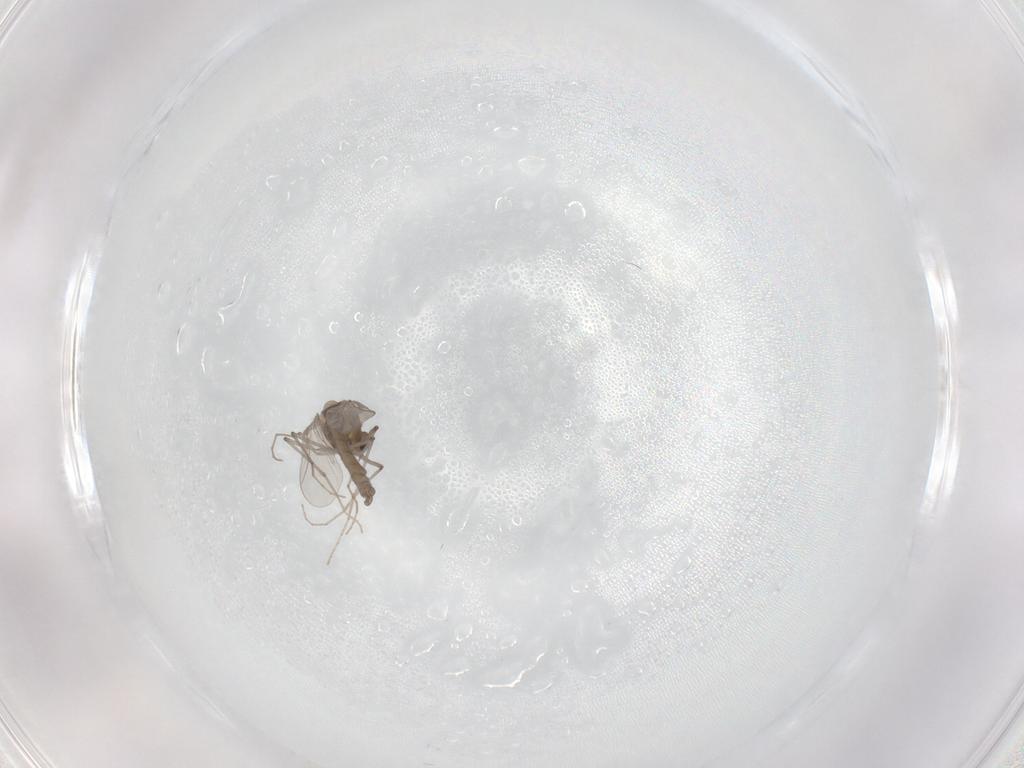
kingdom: Animalia
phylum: Arthropoda
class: Insecta
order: Diptera
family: Chironomidae
